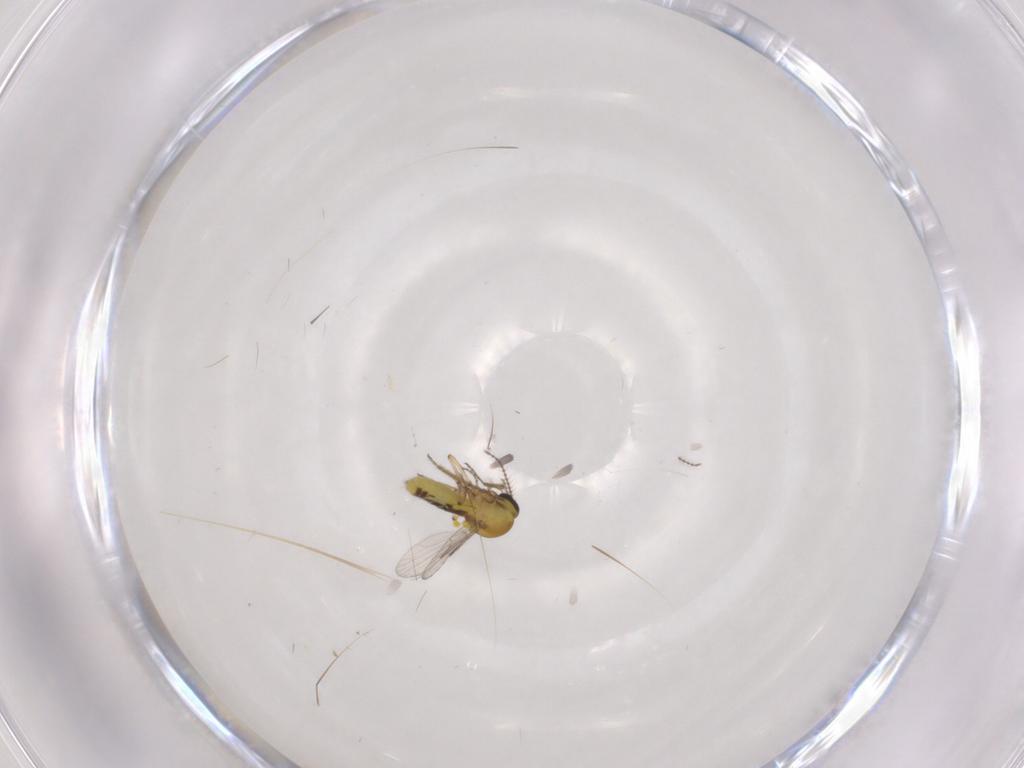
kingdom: Animalia
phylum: Arthropoda
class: Insecta
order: Diptera
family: Ceratopogonidae
